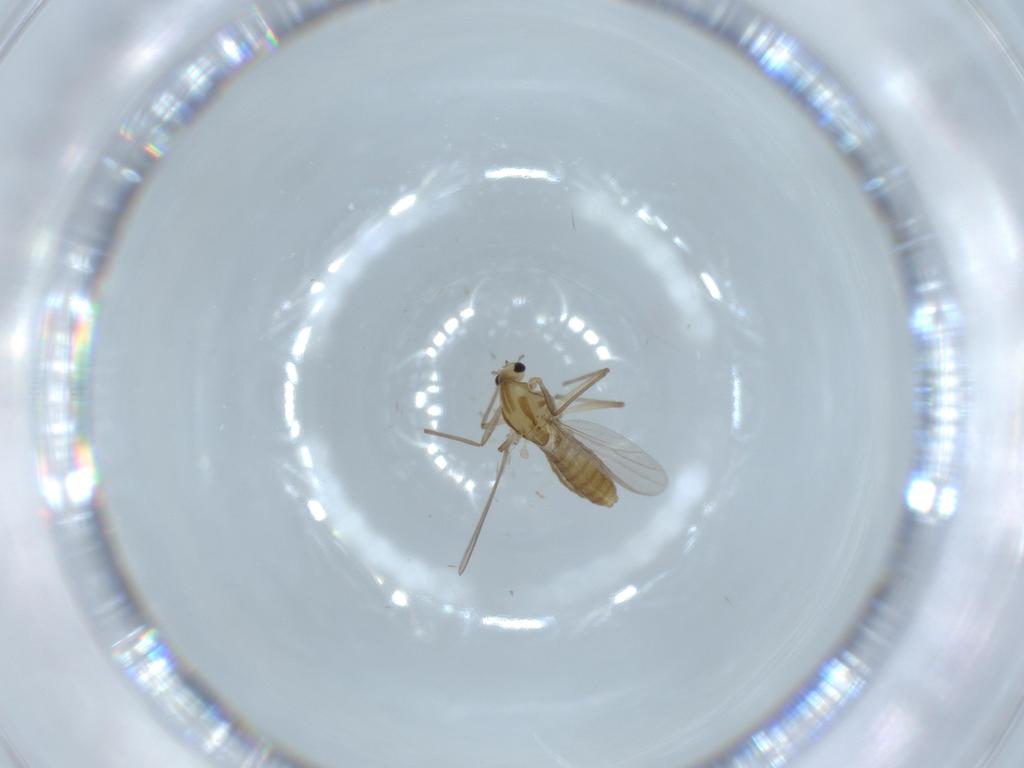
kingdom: Animalia
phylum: Arthropoda
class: Insecta
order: Diptera
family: Chironomidae
